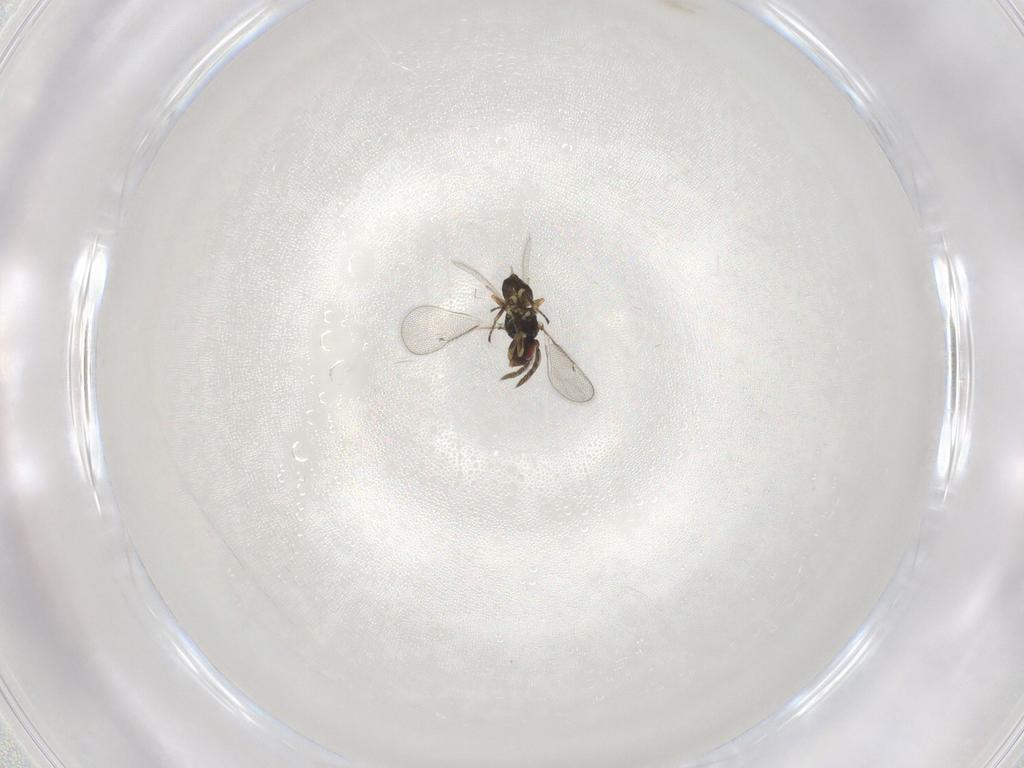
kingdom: Animalia
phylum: Arthropoda
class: Insecta
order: Hymenoptera
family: Eulophidae
